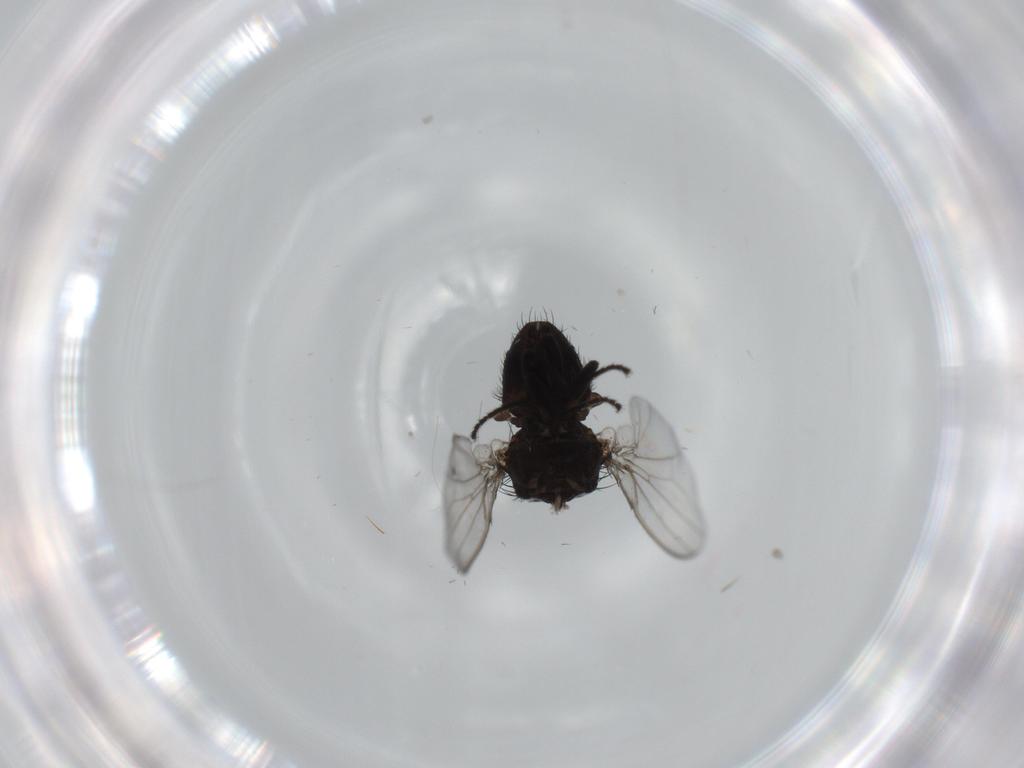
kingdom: Animalia
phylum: Arthropoda
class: Insecta
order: Diptera
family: Milichiidae
